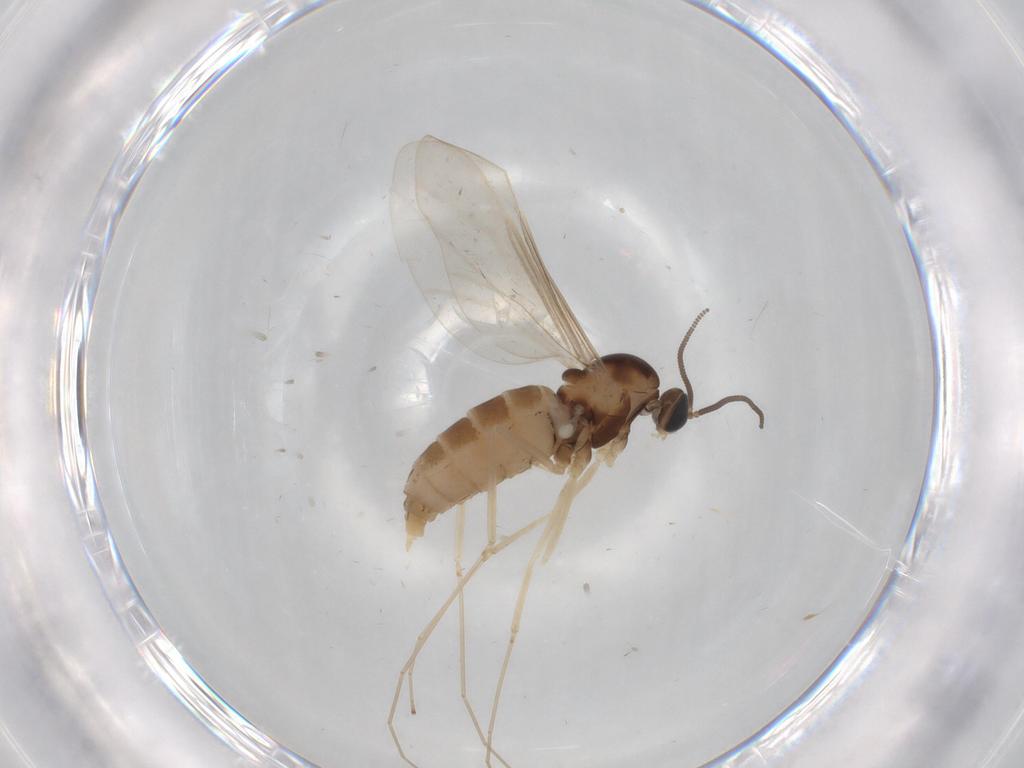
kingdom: Animalia
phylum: Arthropoda
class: Insecta
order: Diptera
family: Cecidomyiidae
